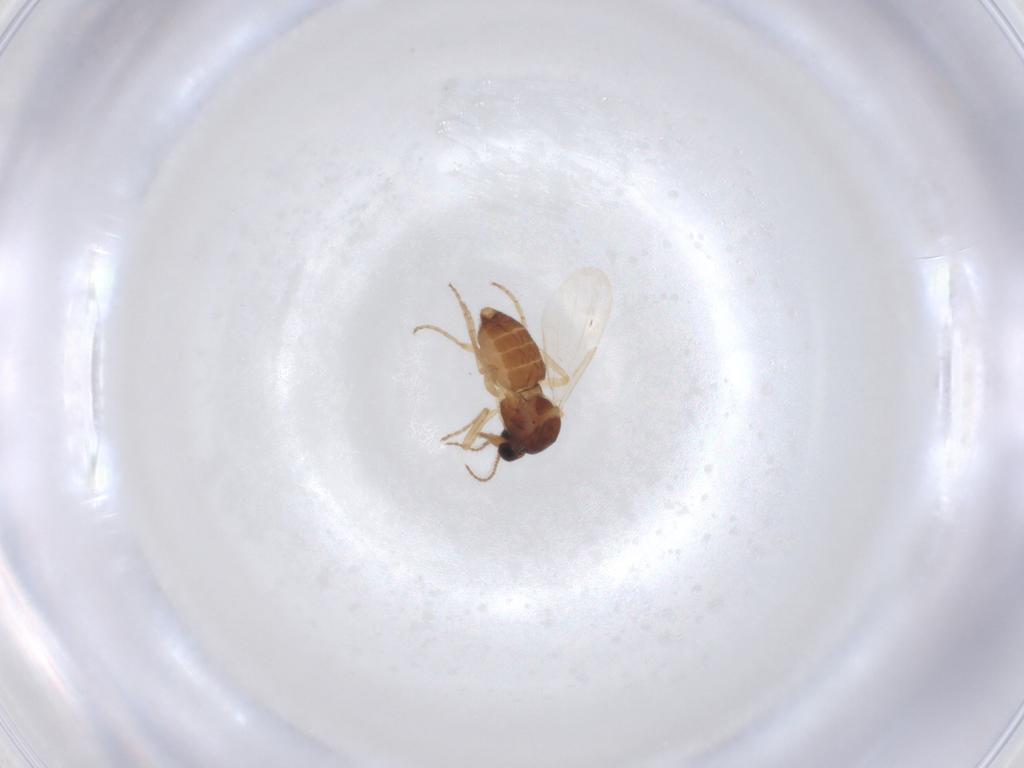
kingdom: Animalia
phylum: Arthropoda
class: Insecta
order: Diptera
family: Ceratopogonidae
